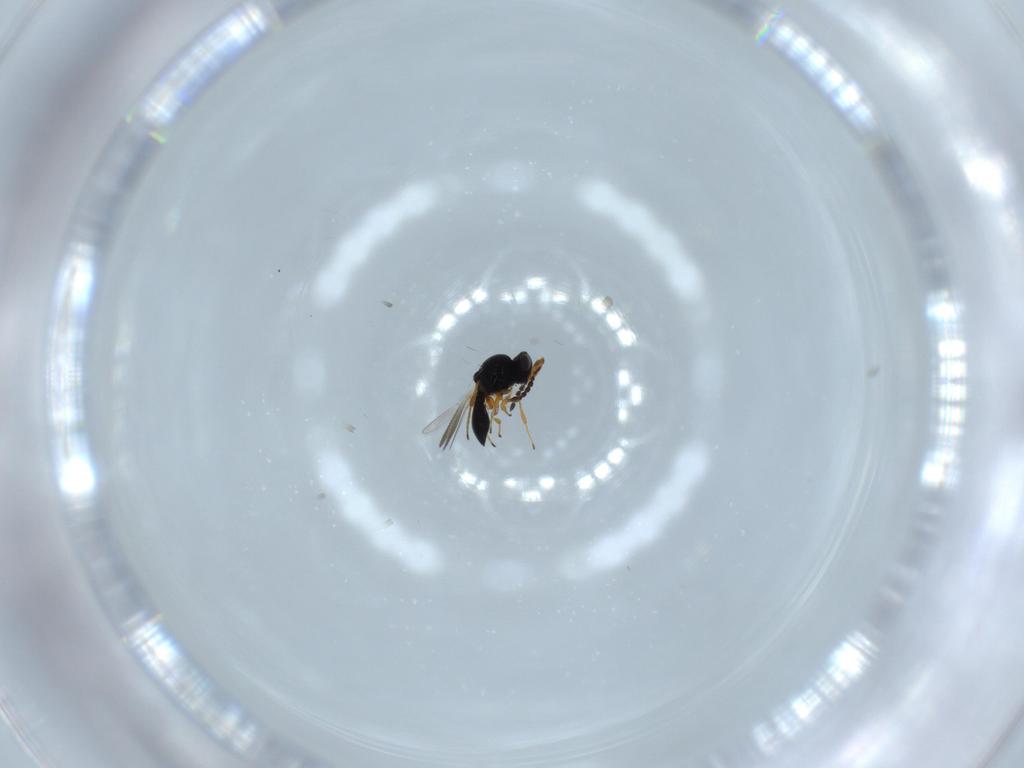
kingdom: Animalia
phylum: Arthropoda
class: Insecta
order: Hymenoptera
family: Platygastridae
